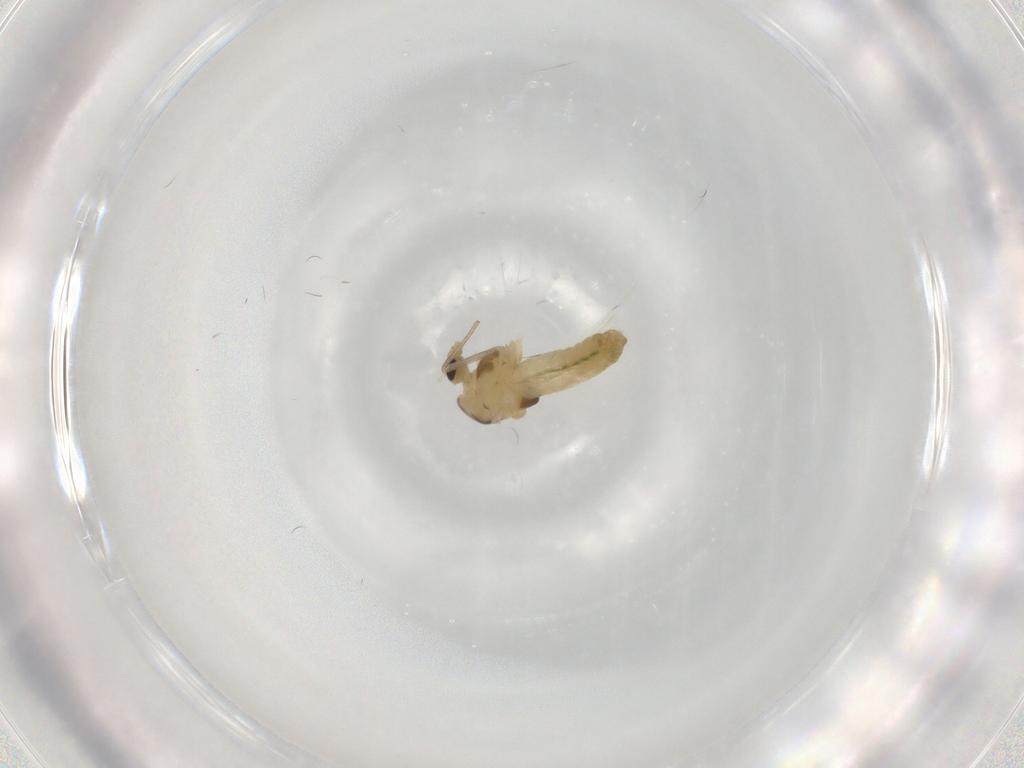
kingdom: Animalia
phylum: Arthropoda
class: Insecta
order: Diptera
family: Chironomidae
